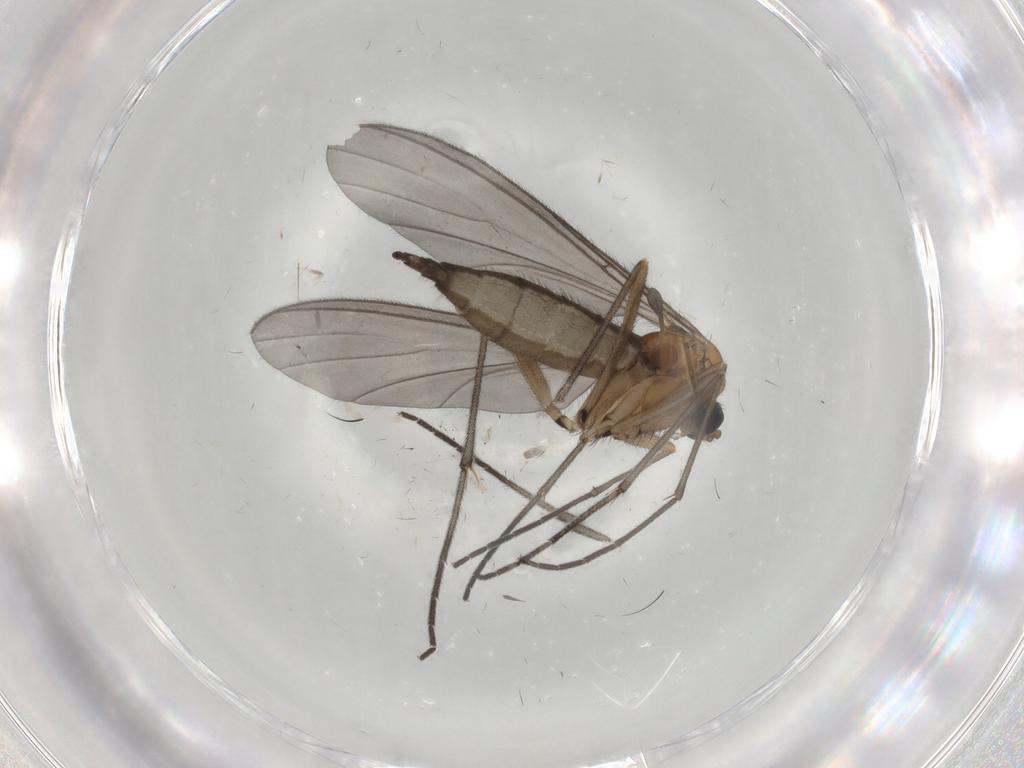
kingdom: Animalia
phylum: Arthropoda
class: Insecta
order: Diptera
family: Sciaridae
